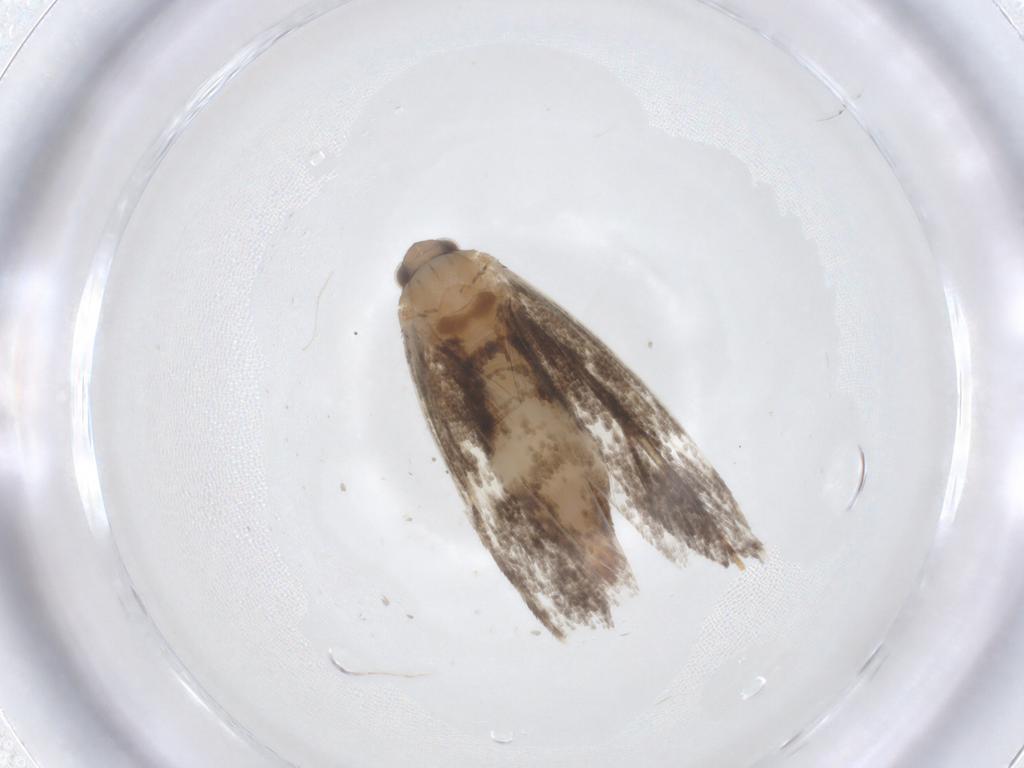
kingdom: Animalia
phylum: Arthropoda
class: Insecta
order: Lepidoptera
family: Tineidae
